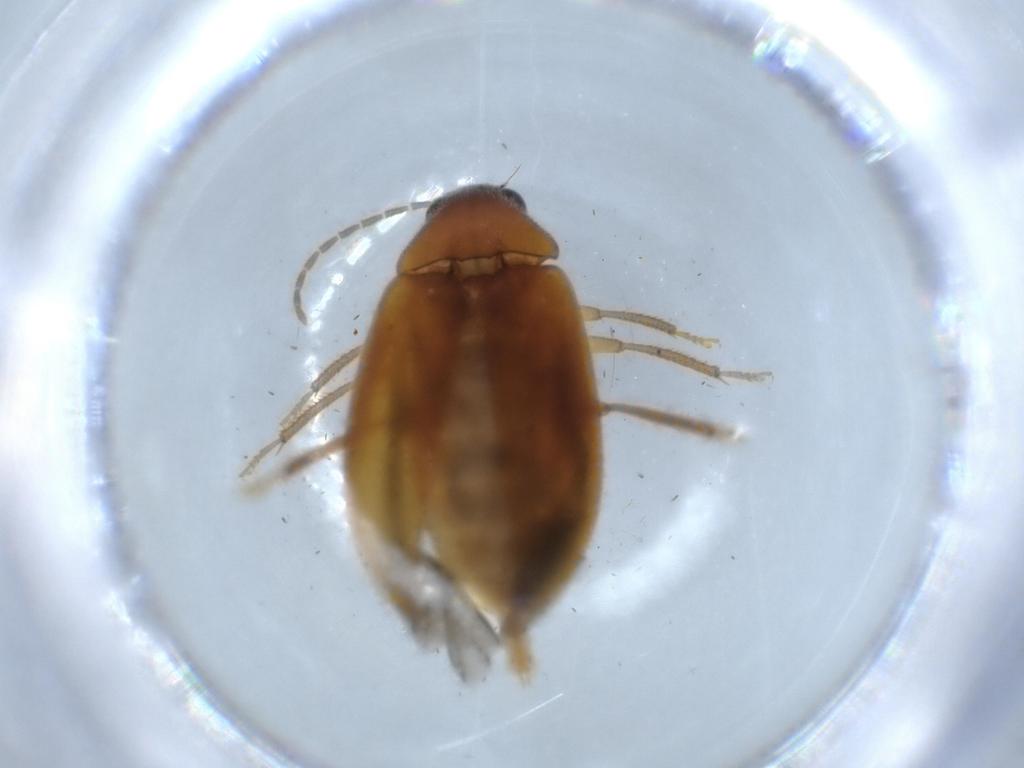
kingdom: Animalia
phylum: Arthropoda
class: Insecta
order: Coleoptera
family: Ptilodactylidae
